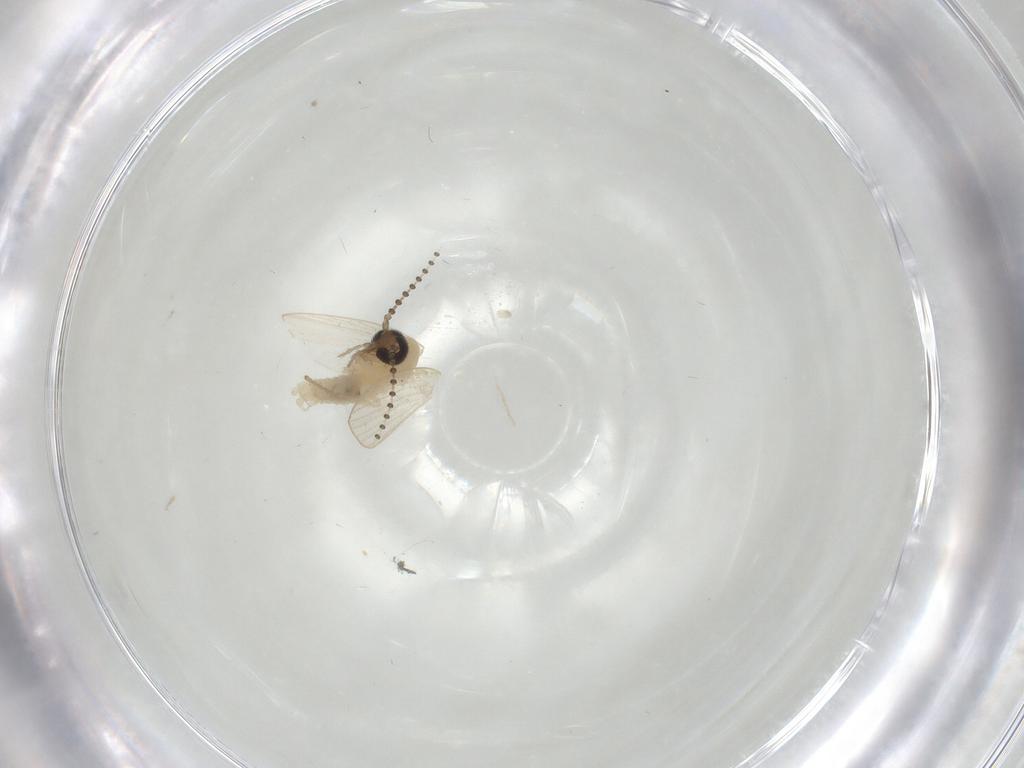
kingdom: Animalia
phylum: Arthropoda
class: Insecta
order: Diptera
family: Psychodidae
